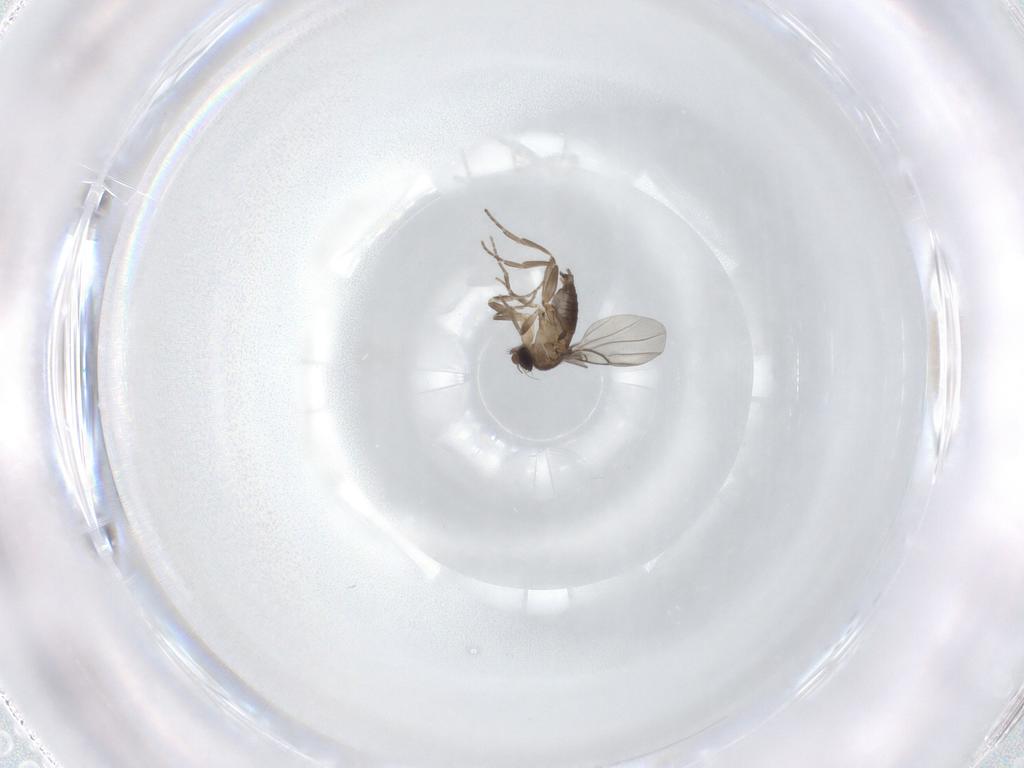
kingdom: Animalia
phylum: Arthropoda
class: Insecta
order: Diptera
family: Phoridae
